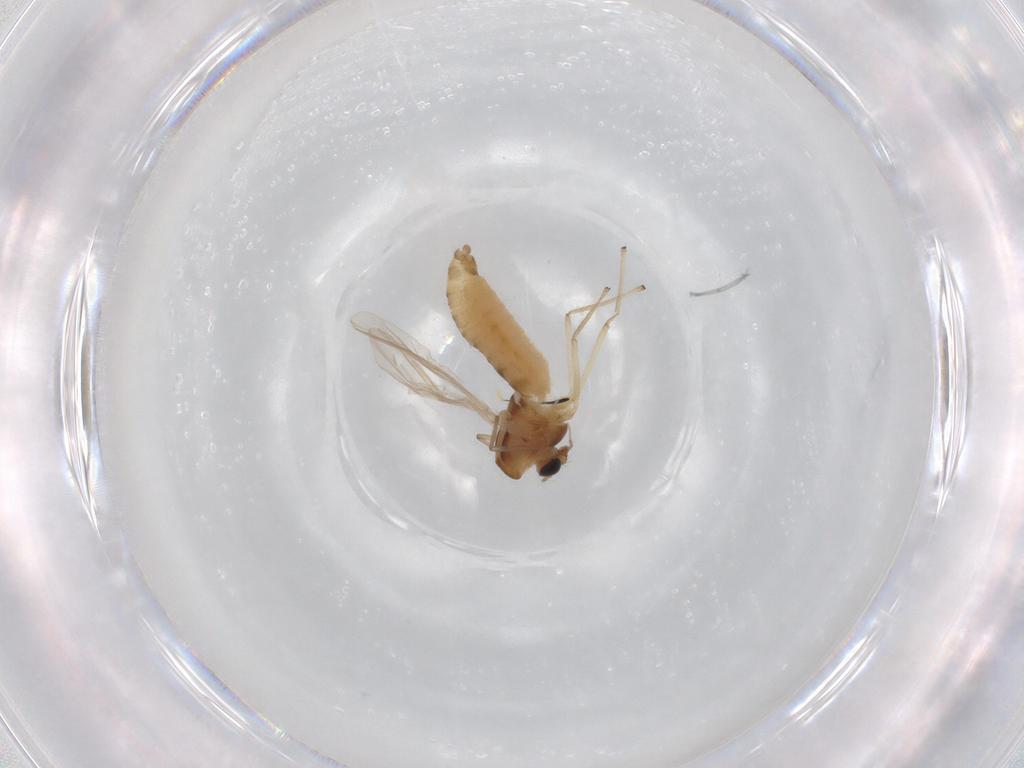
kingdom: Animalia
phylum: Arthropoda
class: Insecta
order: Diptera
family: Chironomidae
